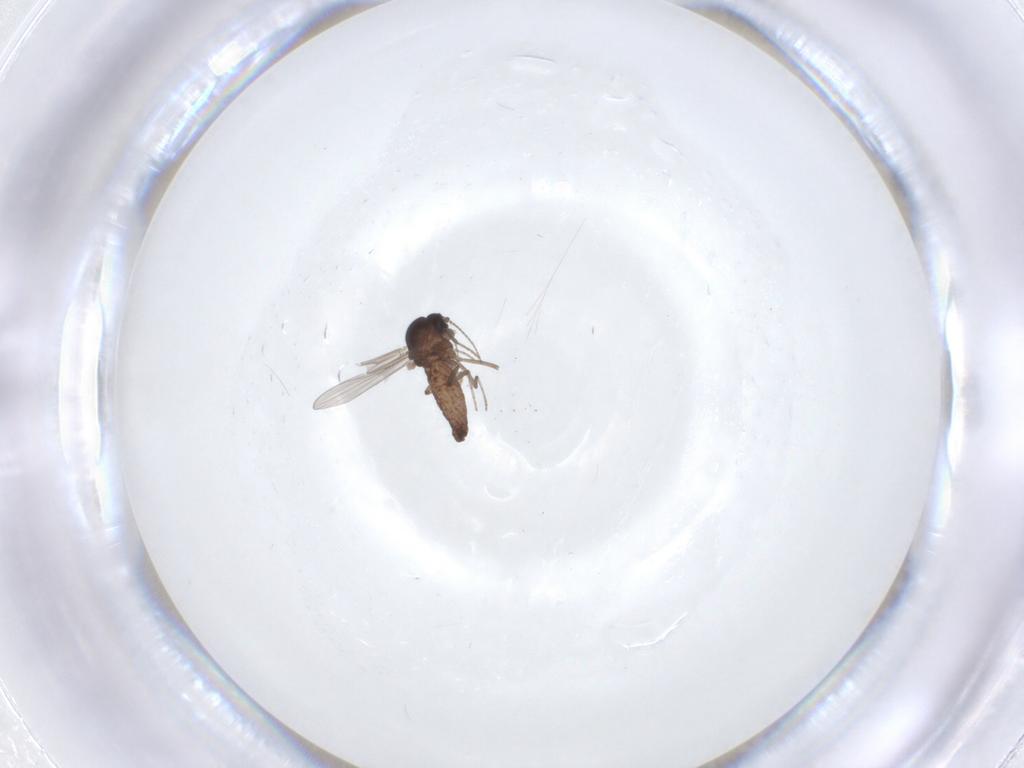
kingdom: Animalia
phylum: Arthropoda
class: Insecta
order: Diptera
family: Ceratopogonidae
